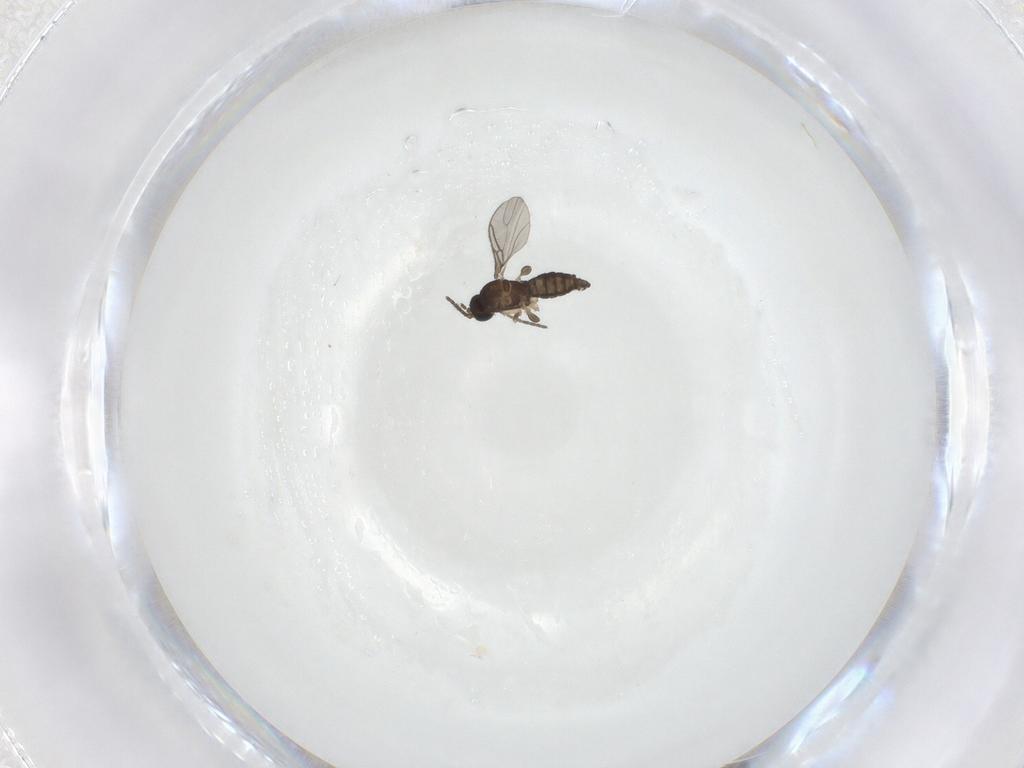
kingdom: Animalia
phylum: Arthropoda
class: Insecta
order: Diptera
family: Sciaridae
